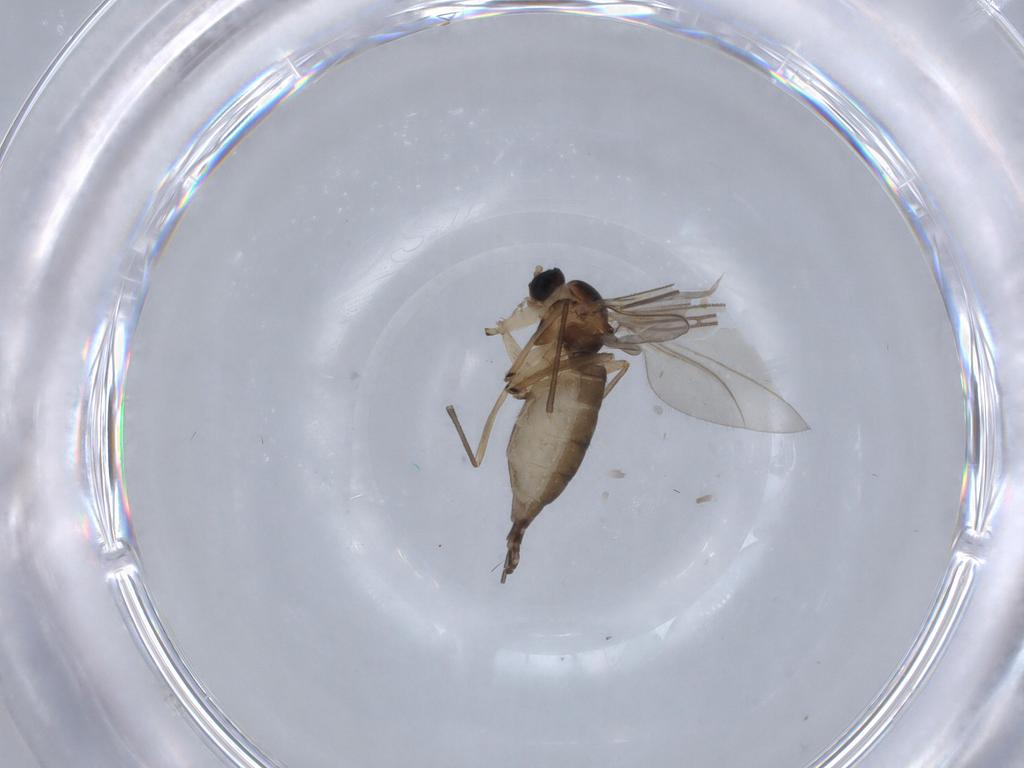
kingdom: Animalia
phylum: Arthropoda
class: Insecta
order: Diptera
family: Sciaridae
